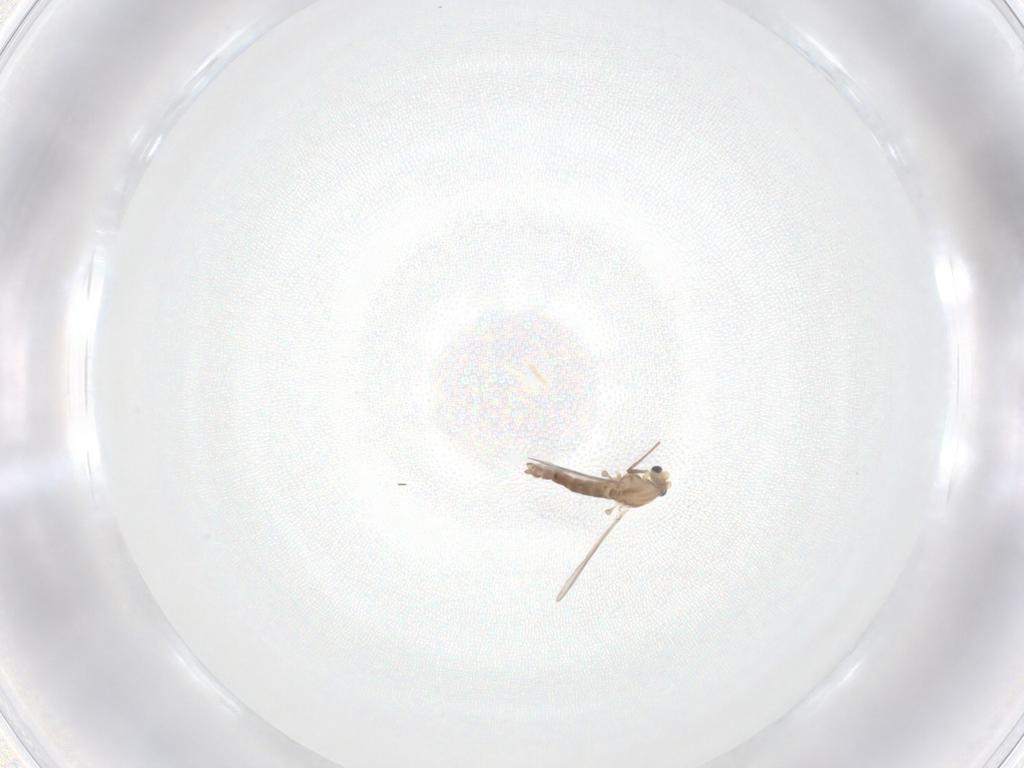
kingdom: Animalia
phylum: Arthropoda
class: Insecta
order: Diptera
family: Chironomidae
